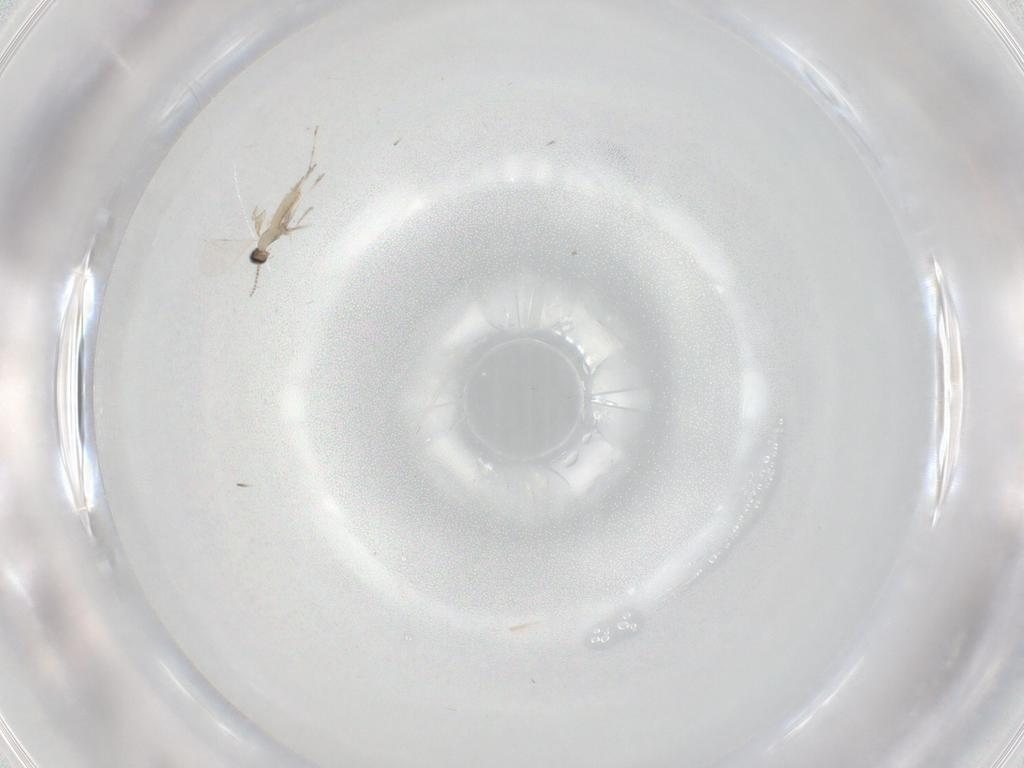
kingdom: Animalia
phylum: Arthropoda
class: Insecta
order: Diptera
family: Cecidomyiidae
